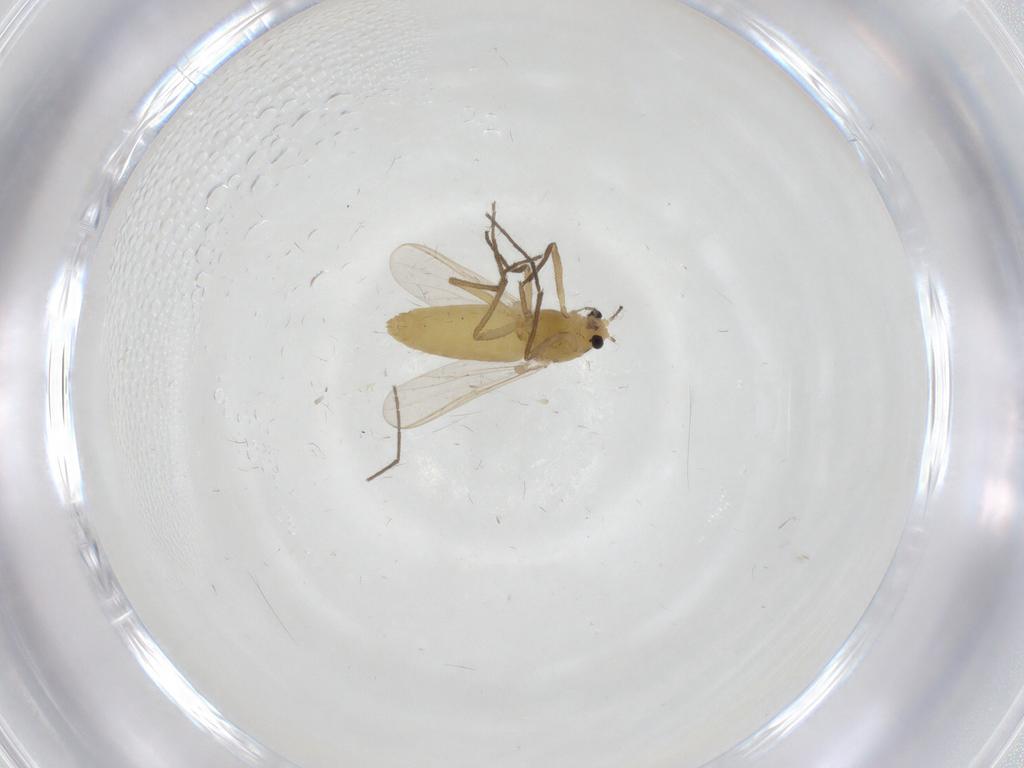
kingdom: Animalia
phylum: Arthropoda
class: Insecta
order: Diptera
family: Chironomidae
